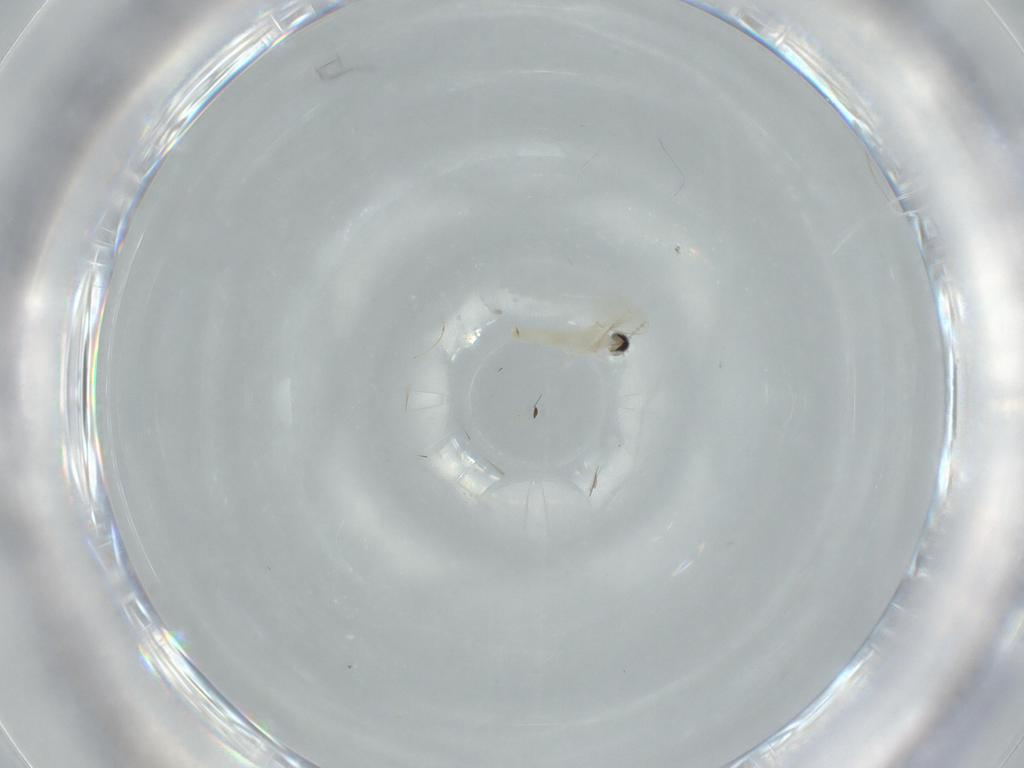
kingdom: Animalia
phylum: Arthropoda
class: Insecta
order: Diptera
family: Cecidomyiidae
